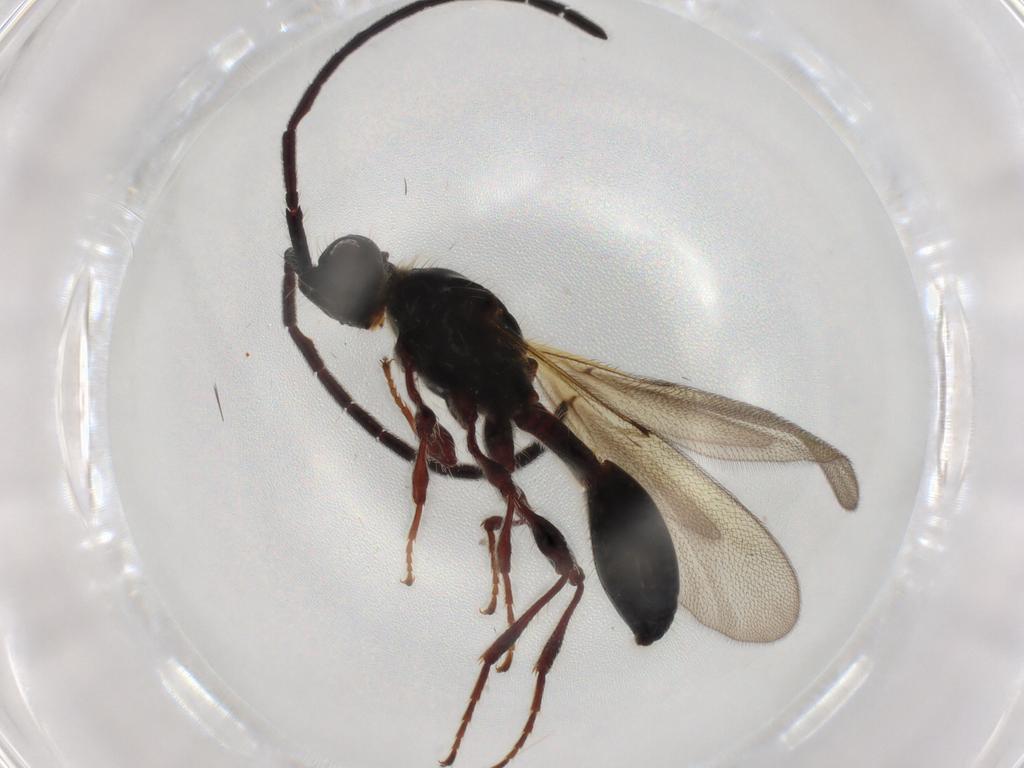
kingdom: Animalia
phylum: Arthropoda
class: Insecta
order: Hymenoptera
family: Diapriidae
